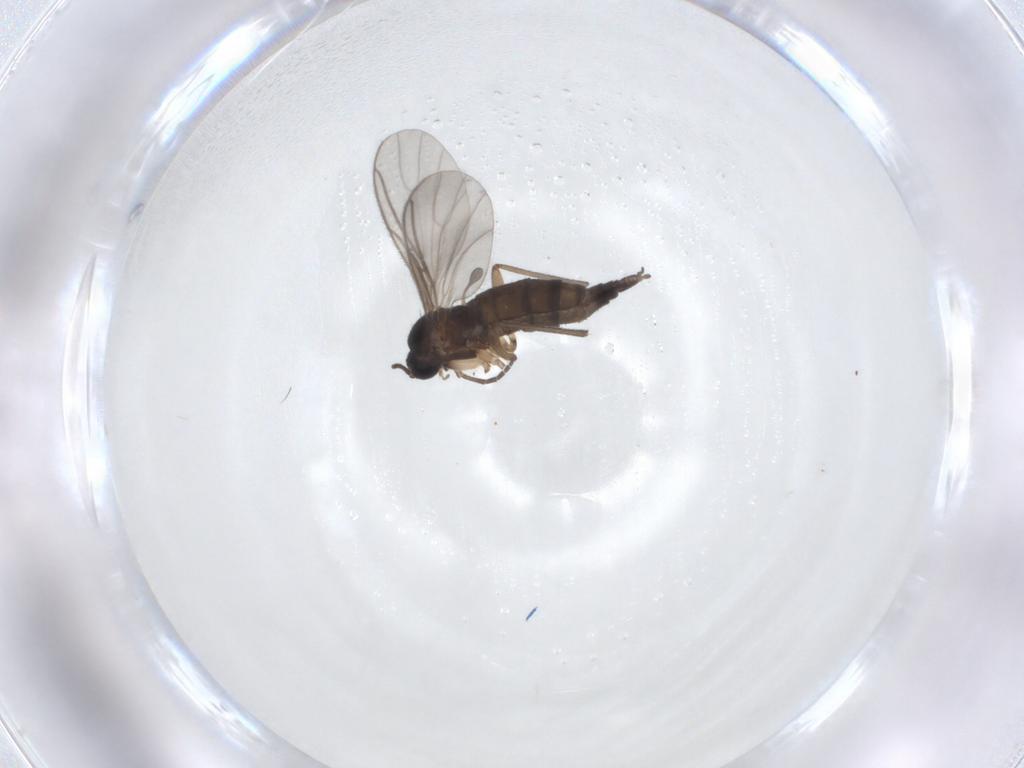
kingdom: Animalia
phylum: Arthropoda
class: Insecta
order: Diptera
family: Sciaridae
